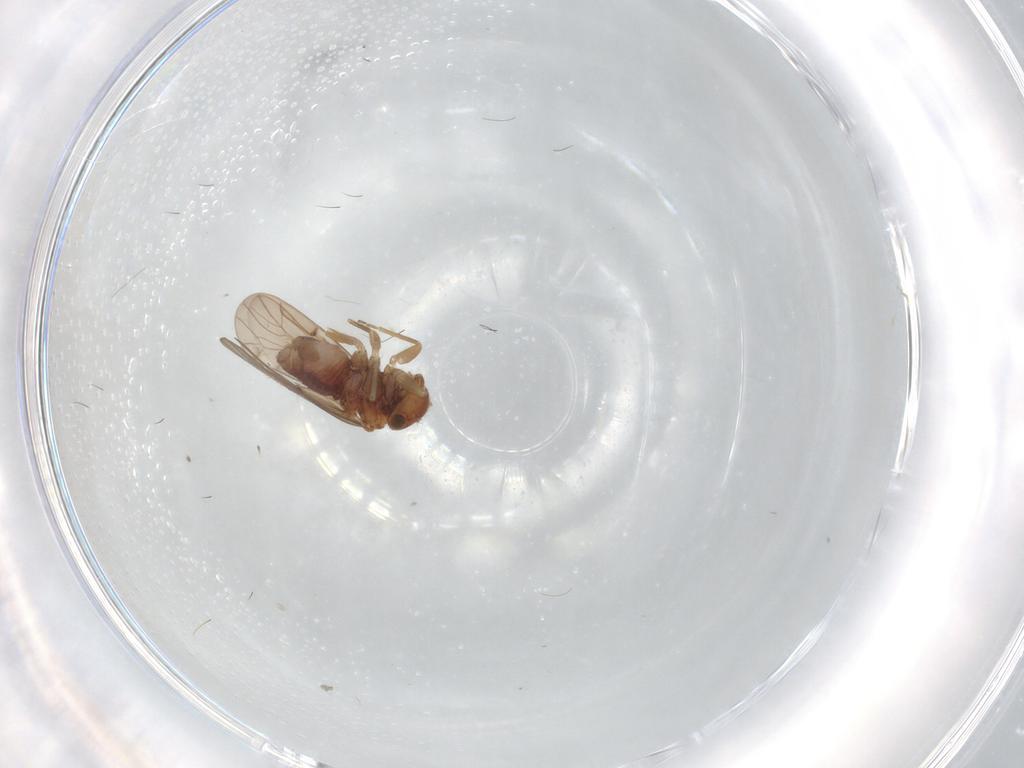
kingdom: Animalia
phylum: Arthropoda
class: Insecta
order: Psocodea
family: Ectopsocidae
